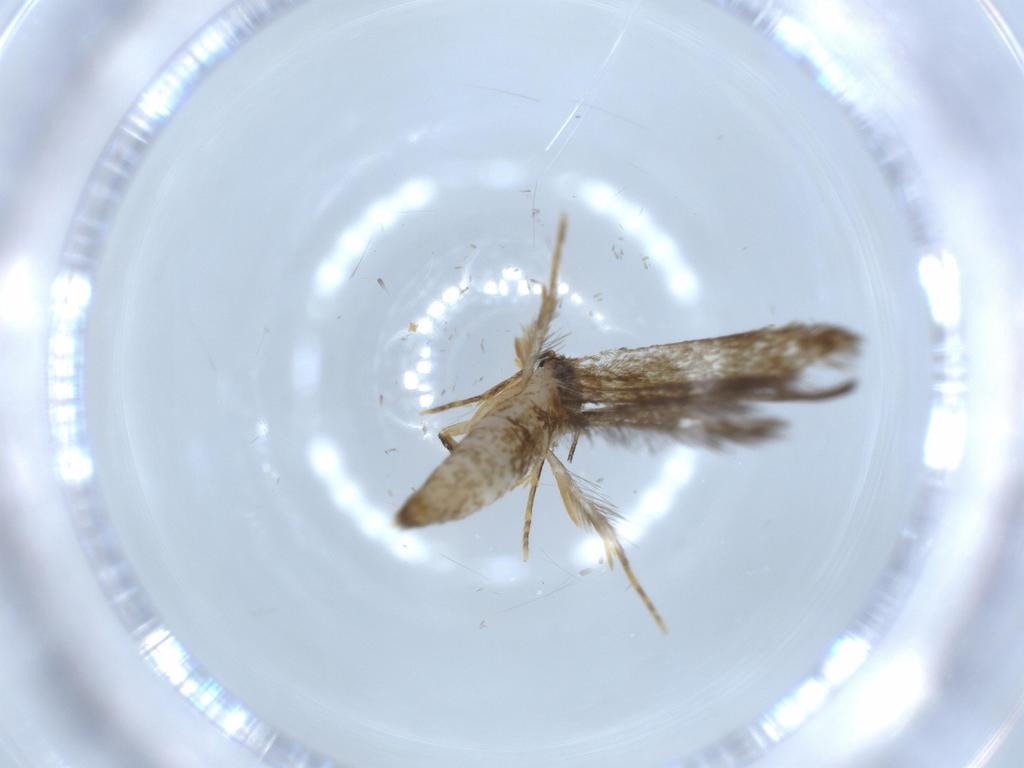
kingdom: Animalia
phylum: Arthropoda
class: Insecta
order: Lepidoptera
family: Tineidae
